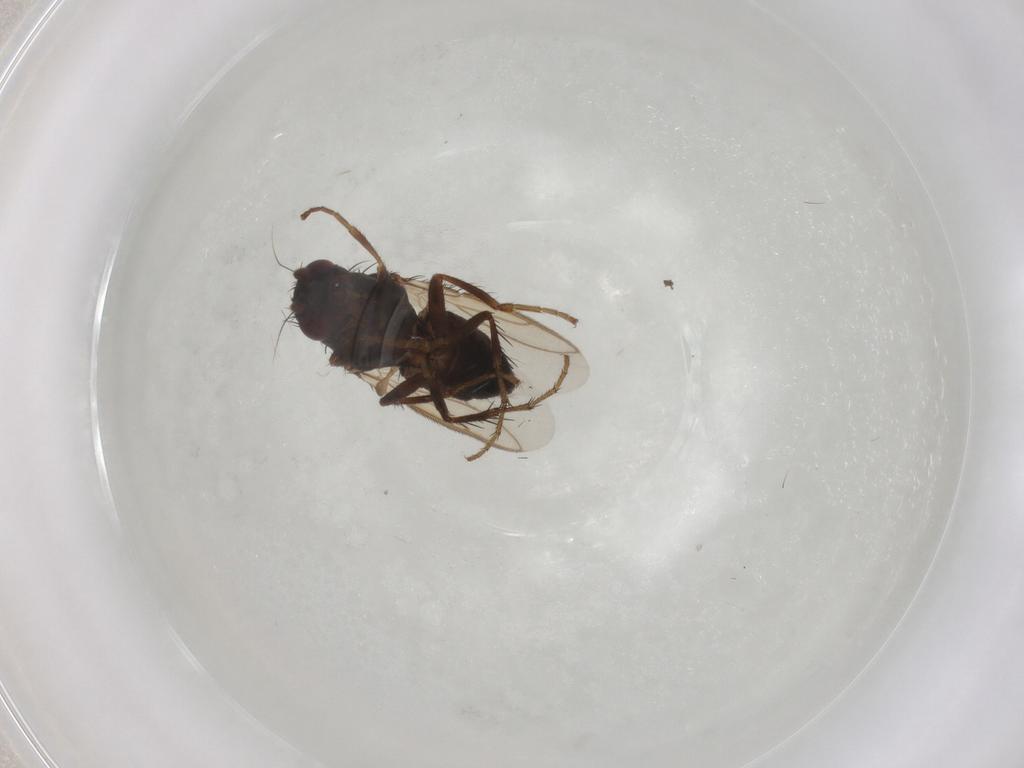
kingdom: Animalia
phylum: Arthropoda
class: Insecta
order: Diptera
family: Sphaeroceridae
